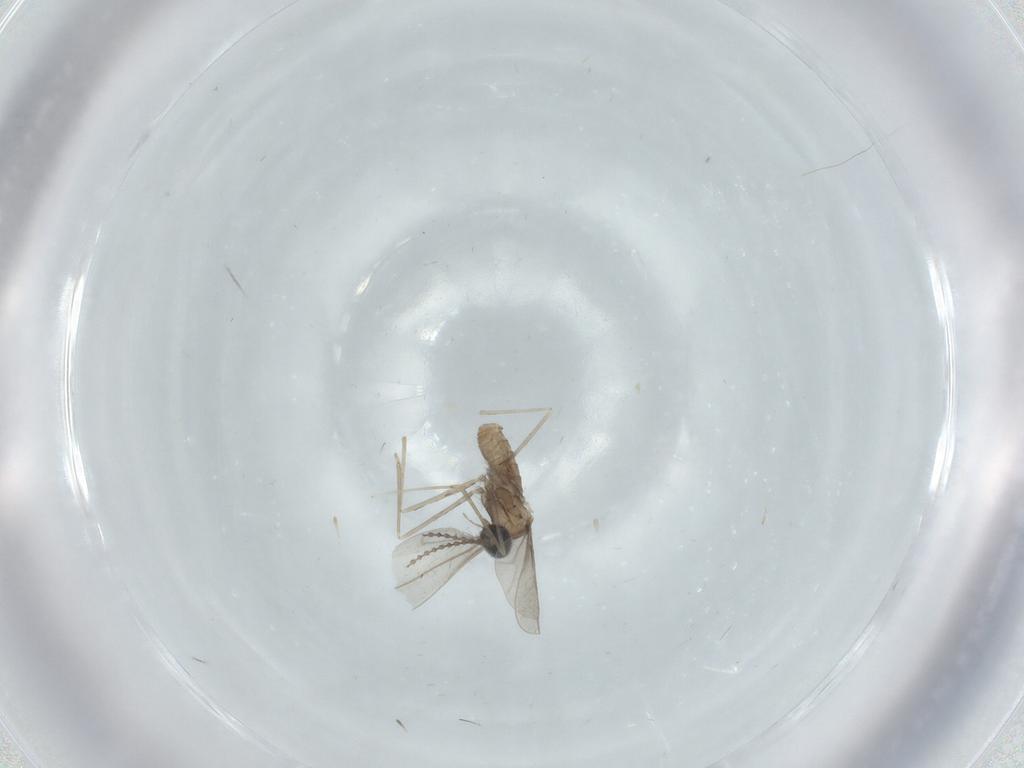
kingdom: Animalia
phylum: Arthropoda
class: Insecta
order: Diptera
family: Cecidomyiidae
